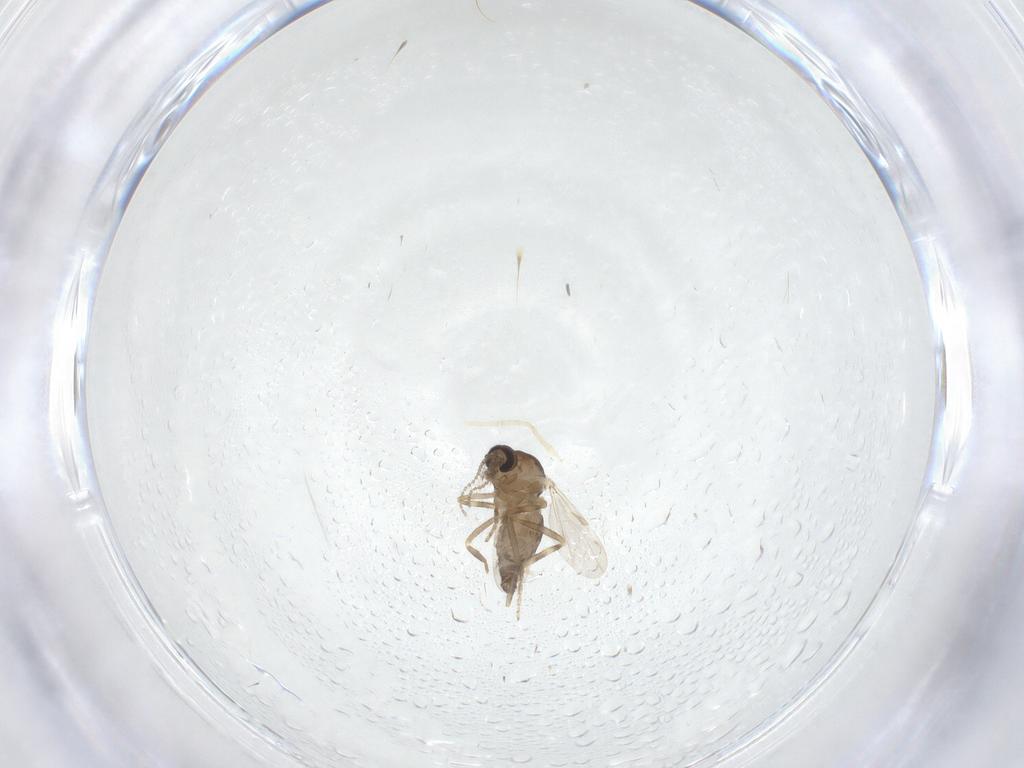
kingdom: Animalia
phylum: Arthropoda
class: Insecta
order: Diptera
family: Ceratopogonidae
